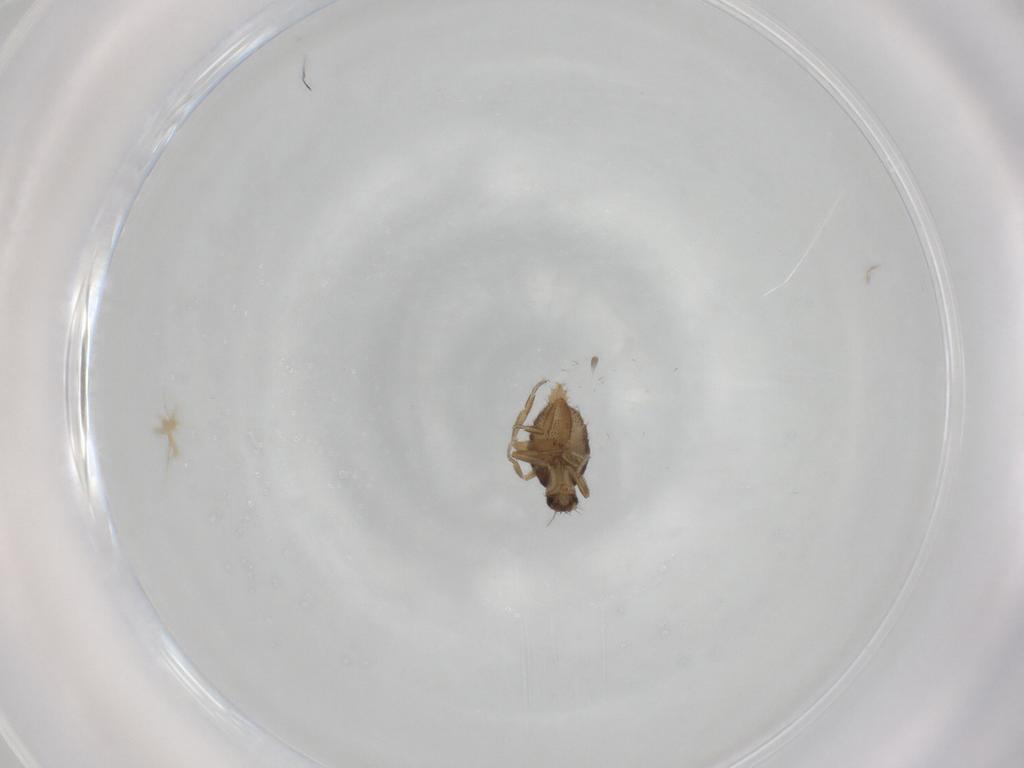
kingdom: Animalia
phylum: Arthropoda
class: Insecta
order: Diptera
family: Phoridae
